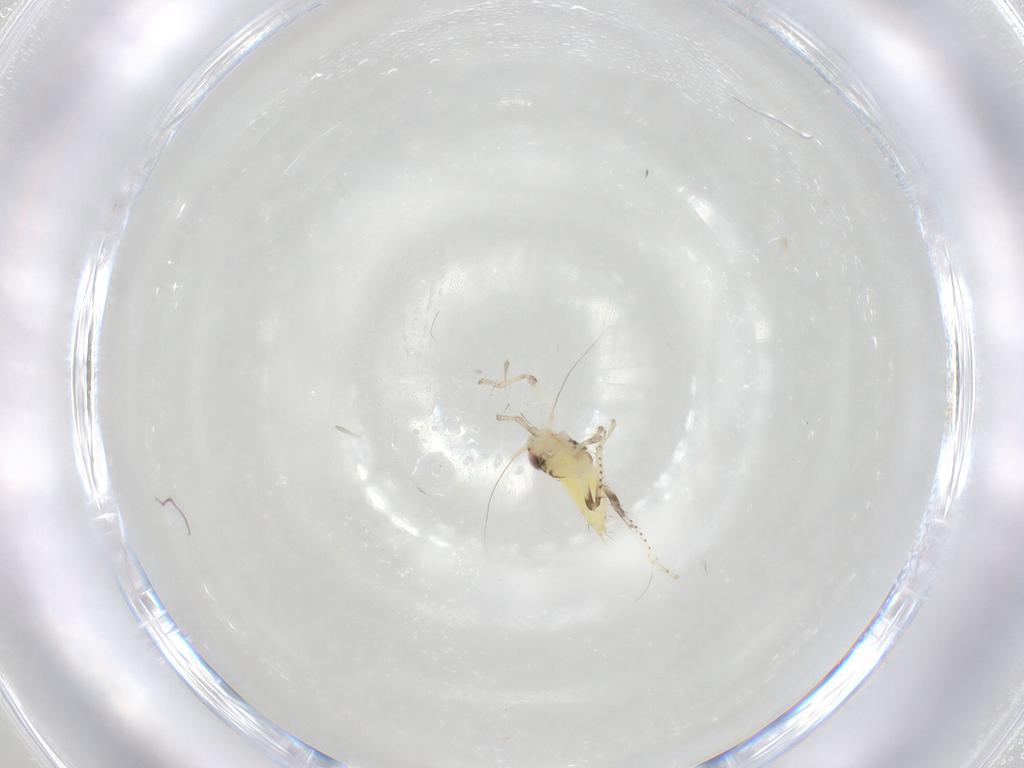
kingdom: Animalia
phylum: Arthropoda
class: Insecta
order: Hemiptera
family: Cicadellidae
